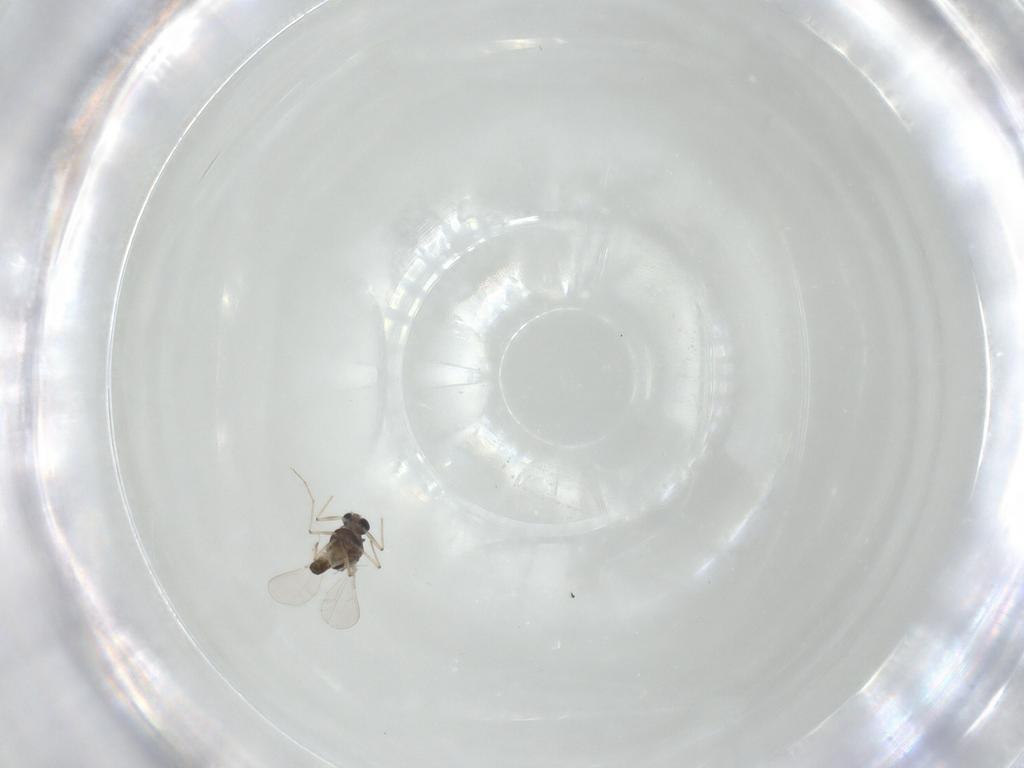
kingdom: Animalia
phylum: Arthropoda
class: Insecta
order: Diptera
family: Chironomidae
